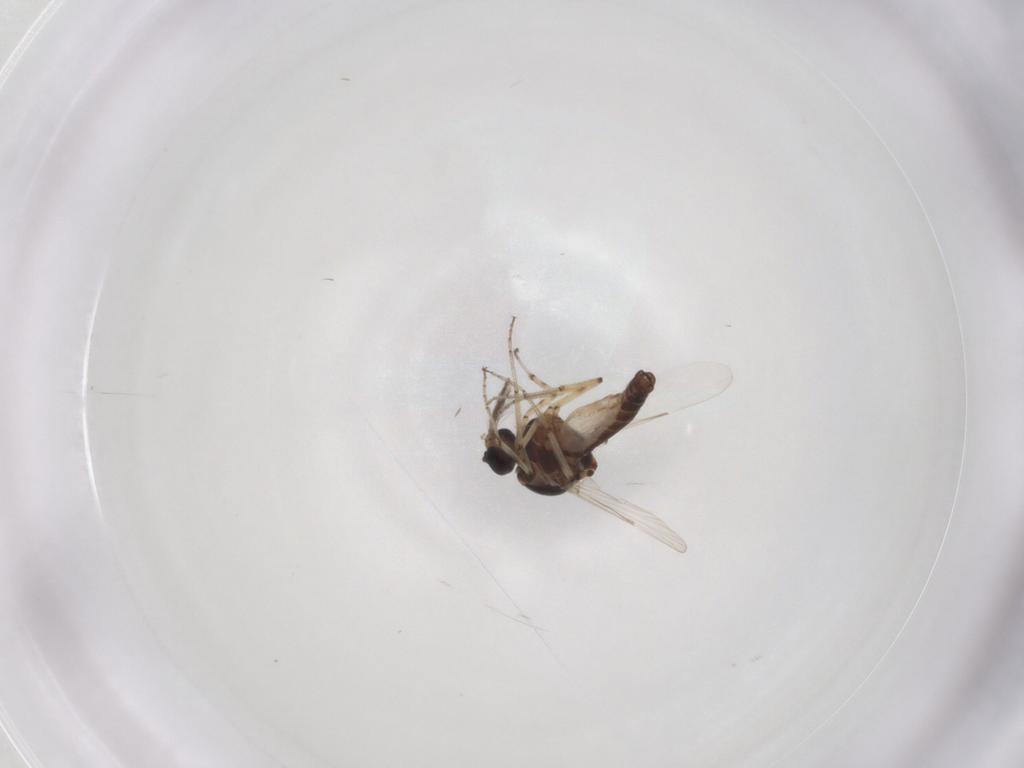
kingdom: Animalia
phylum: Arthropoda
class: Insecta
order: Diptera
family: Ceratopogonidae
